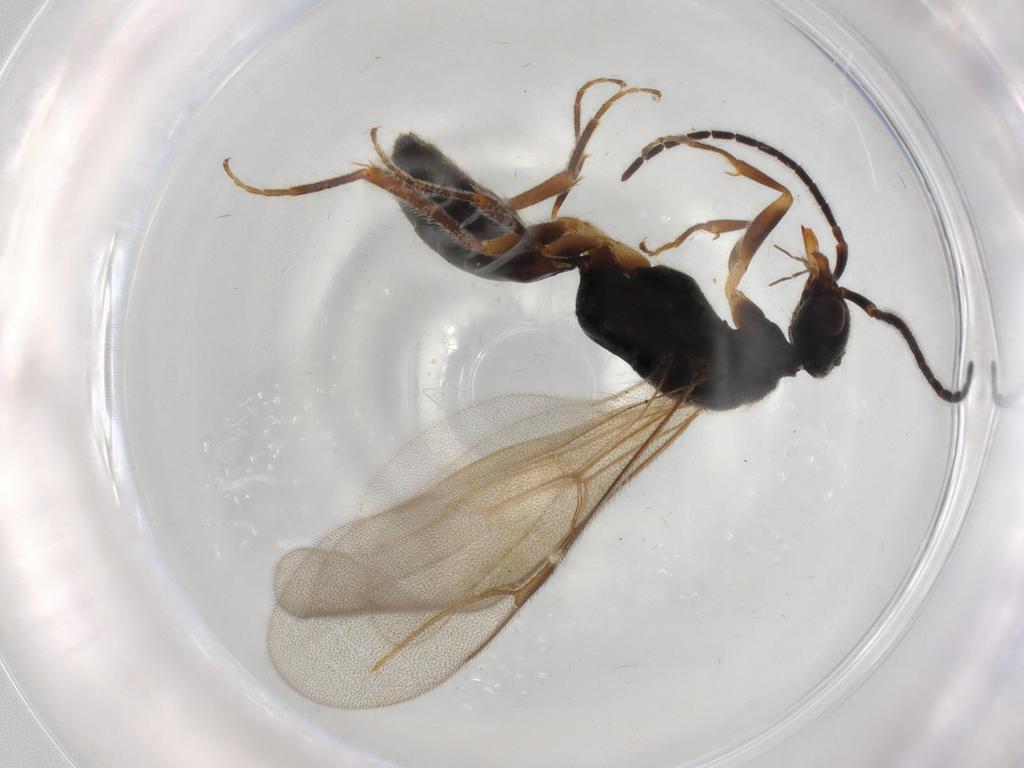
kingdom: Animalia
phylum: Arthropoda
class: Insecta
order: Hymenoptera
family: Bethylidae
